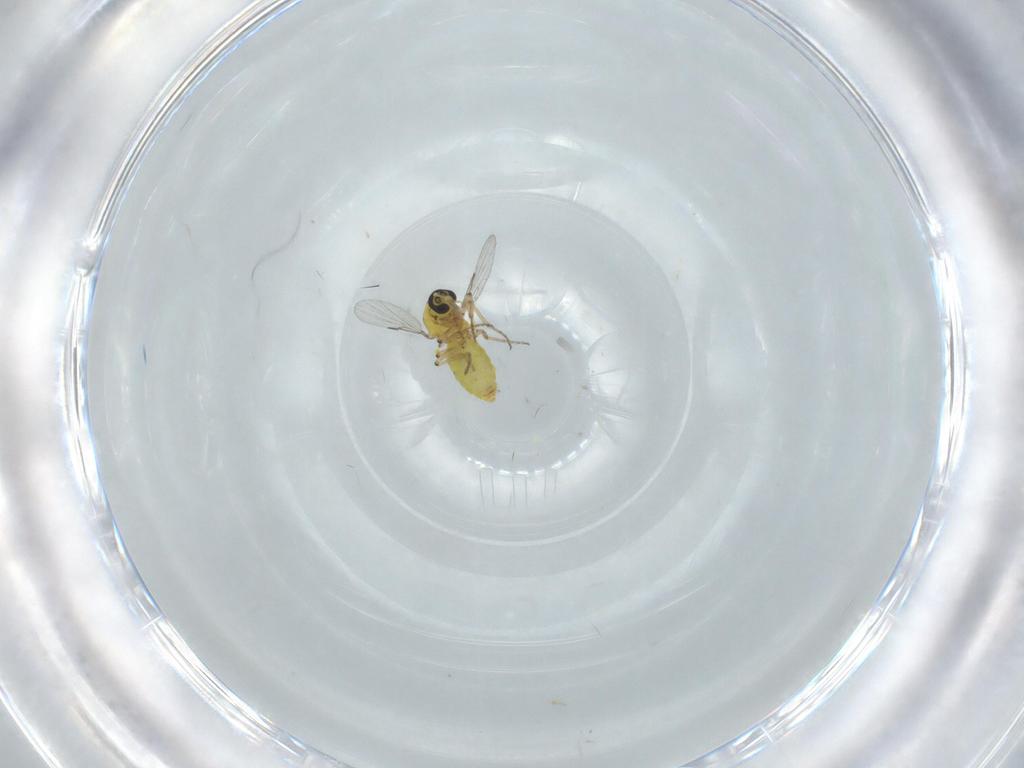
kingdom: Animalia
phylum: Arthropoda
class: Insecta
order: Diptera
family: Ceratopogonidae
